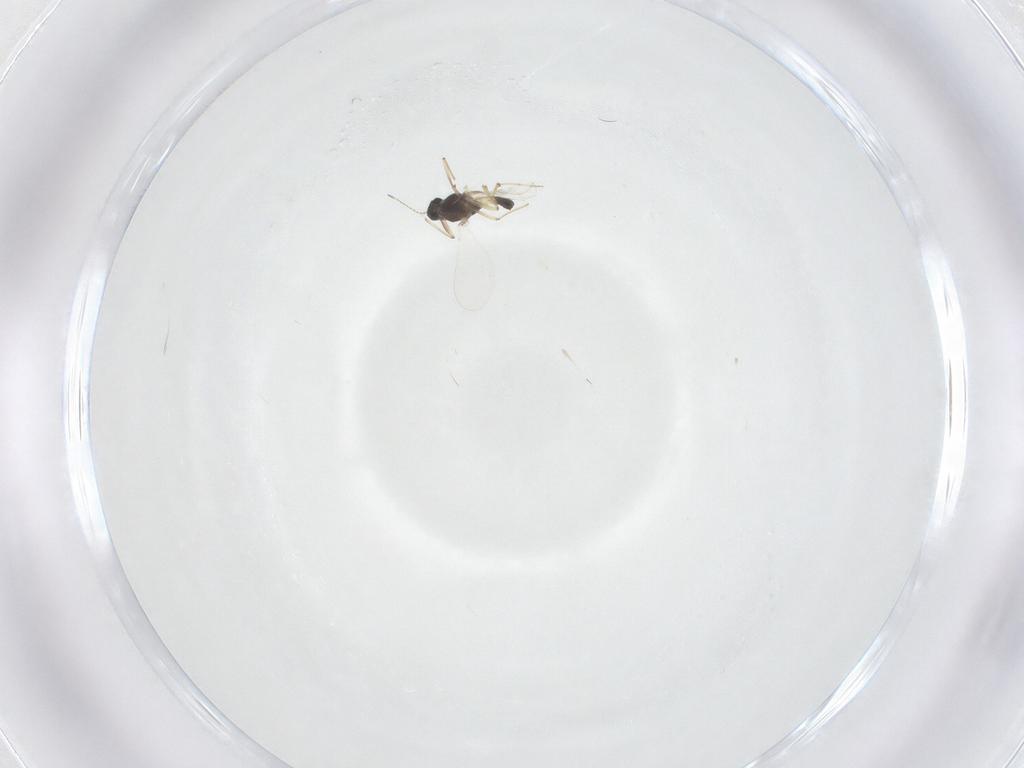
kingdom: Animalia
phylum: Arthropoda
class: Insecta
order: Diptera
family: Chironomidae
